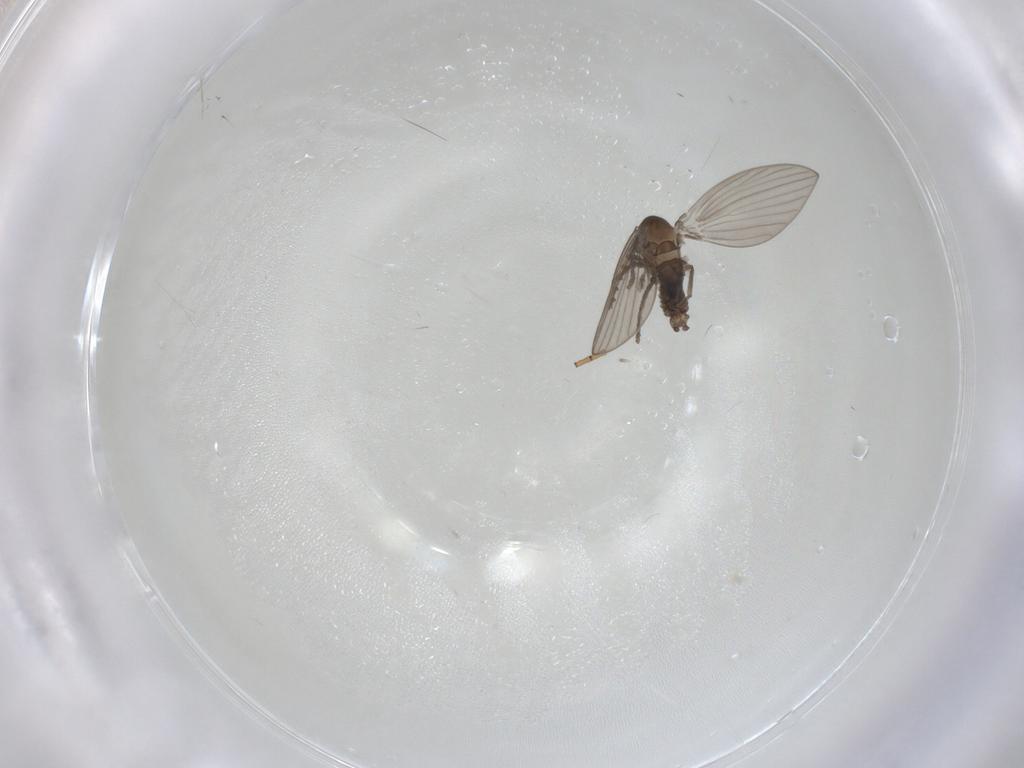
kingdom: Animalia
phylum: Arthropoda
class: Insecta
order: Diptera
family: Psychodidae
